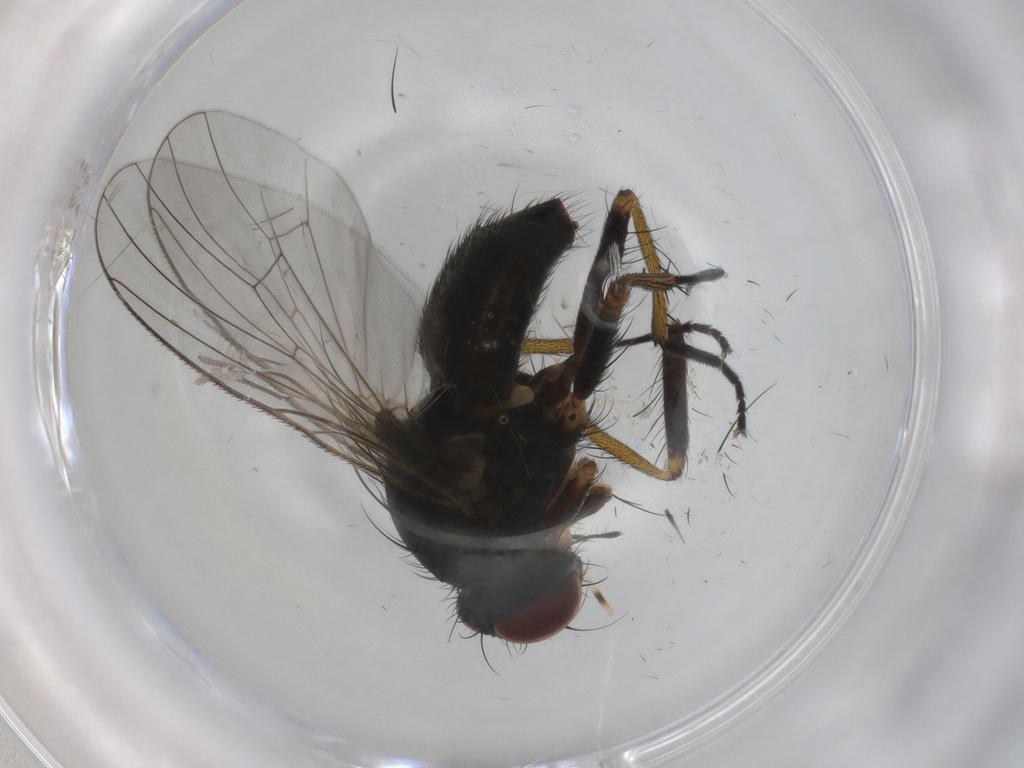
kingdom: Animalia
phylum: Arthropoda
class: Insecta
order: Diptera
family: Muscidae
